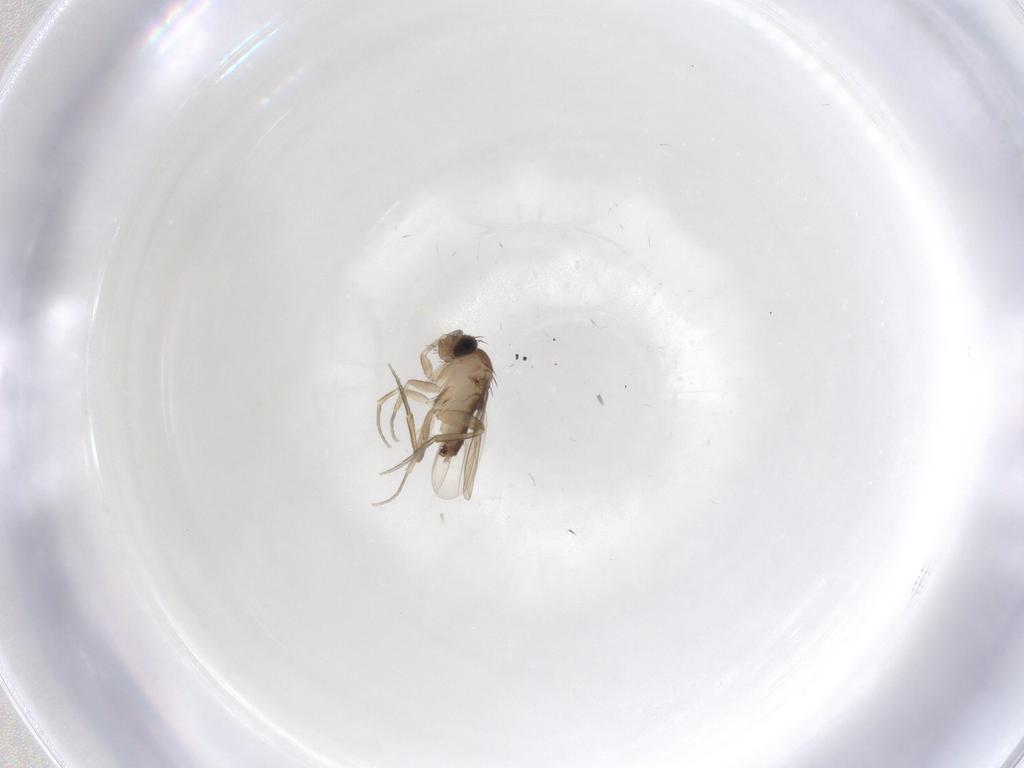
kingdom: Animalia
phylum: Arthropoda
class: Insecta
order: Diptera
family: Phoridae
